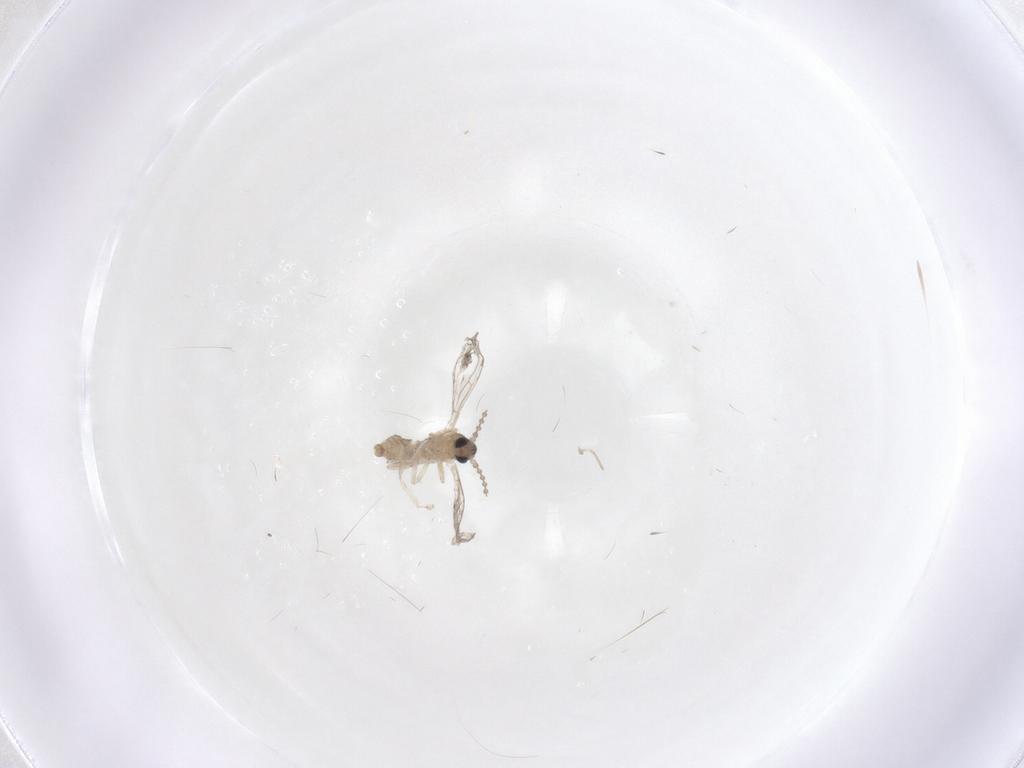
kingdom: Animalia
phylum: Arthropoda
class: Insecta
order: Diptera
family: Cecidomyiidae
